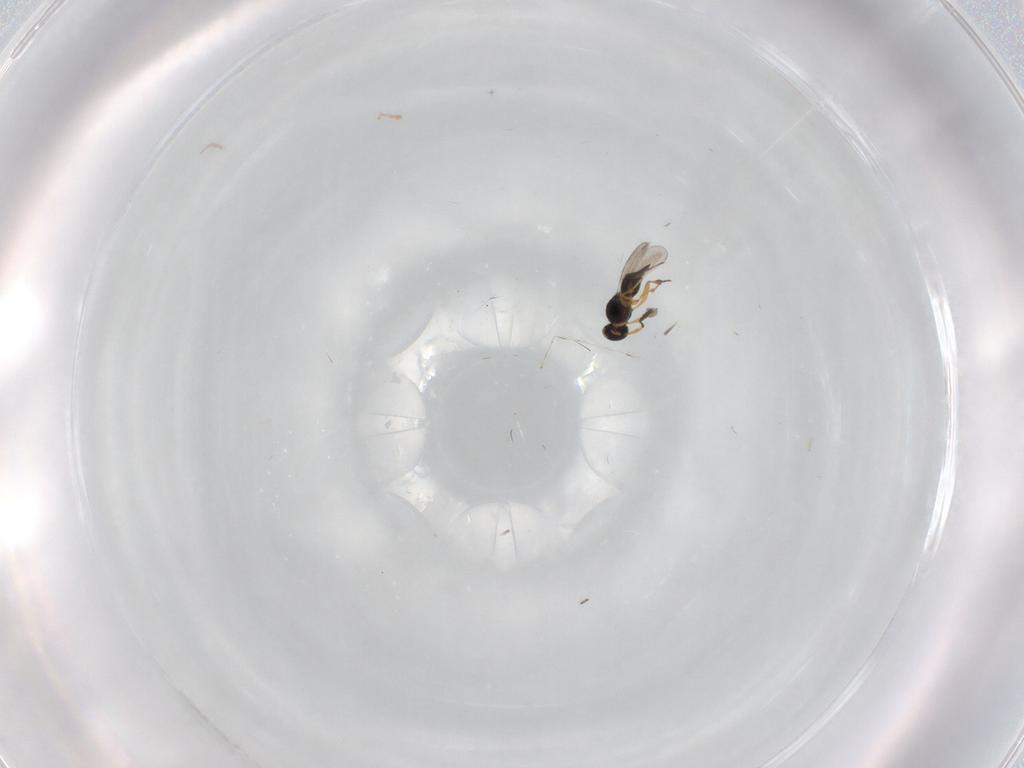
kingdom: Animalia
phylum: Arthropoda
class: Insecta
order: Hymenoptera
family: Platygastridae
